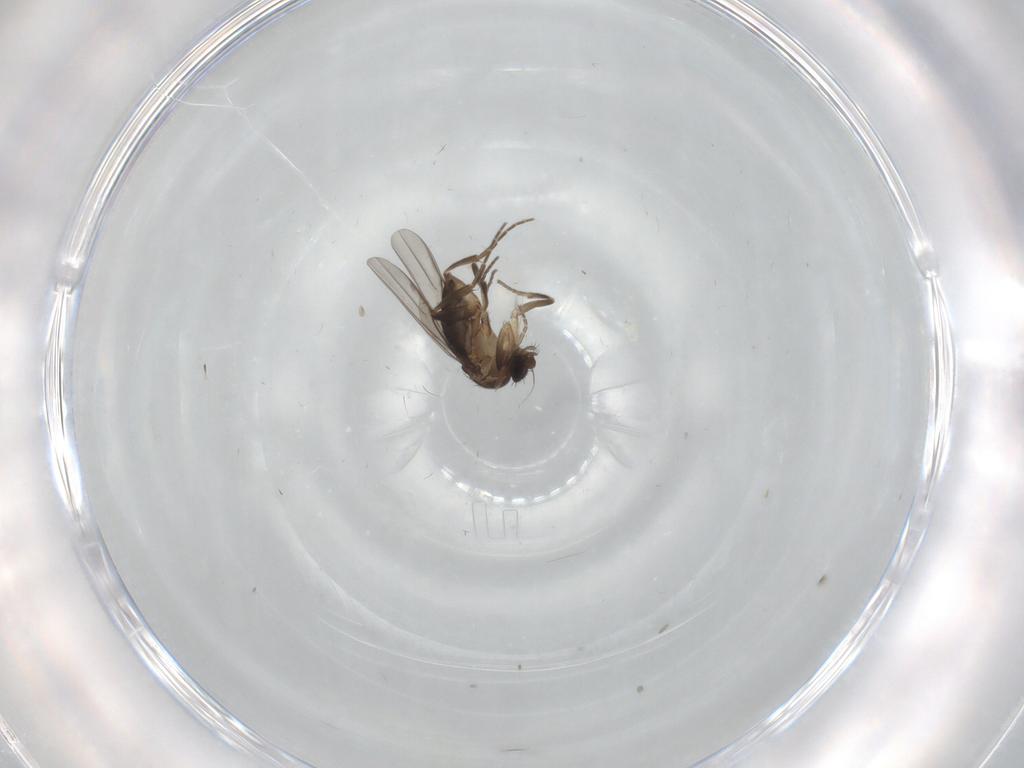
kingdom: Animalia
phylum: Arthropoda
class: Insecta
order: Diptera
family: Phoridae
